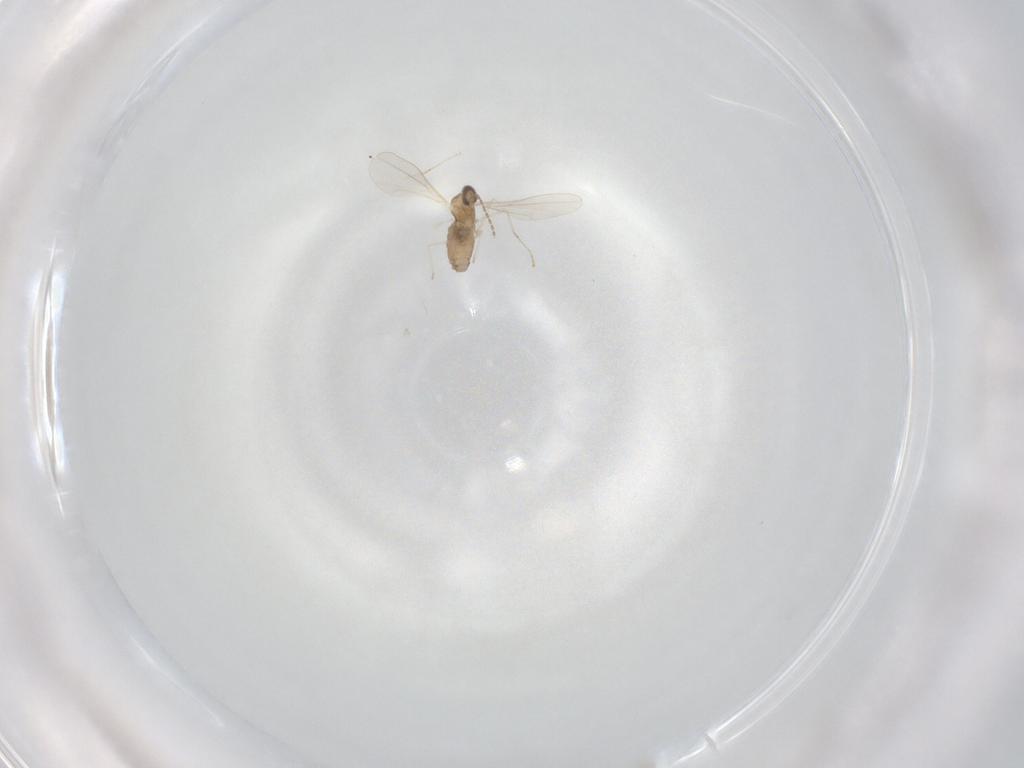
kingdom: Animalia
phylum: Arthropoda
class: Insecta
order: Diptera
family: Cecidomyiidae
